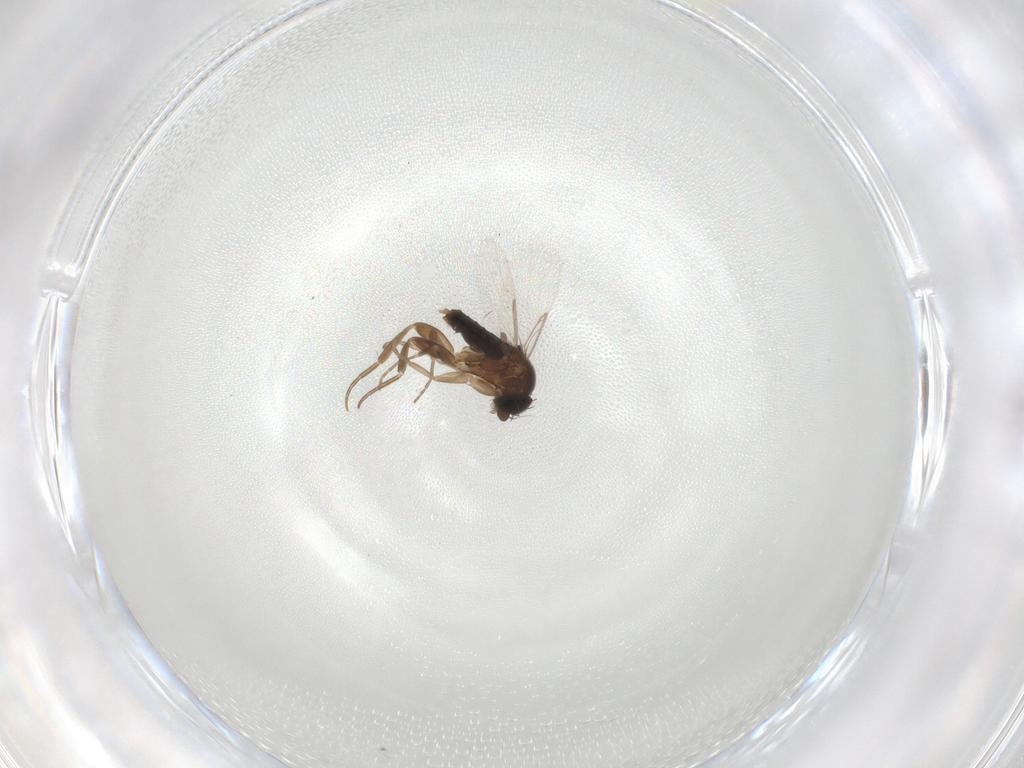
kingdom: Animalia
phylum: Arthropoda
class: Insecta
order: Diptera
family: Phoridae
